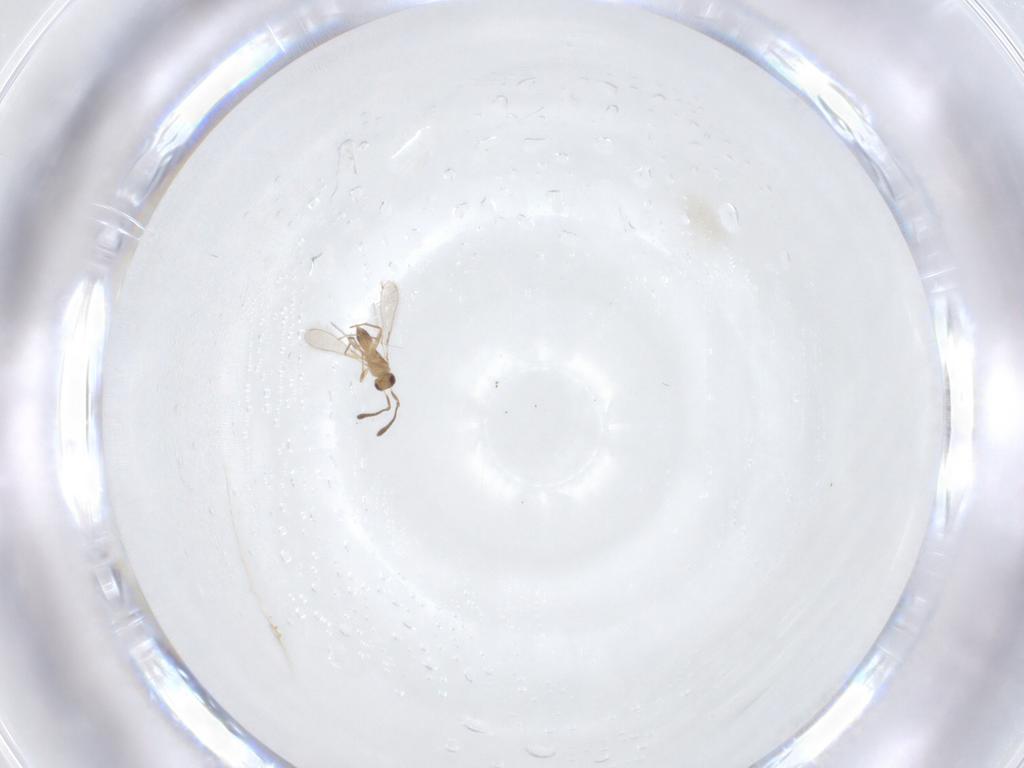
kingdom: Animalia
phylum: Arthropoda
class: Insecta
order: Hymenoptera
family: Mymaridae
